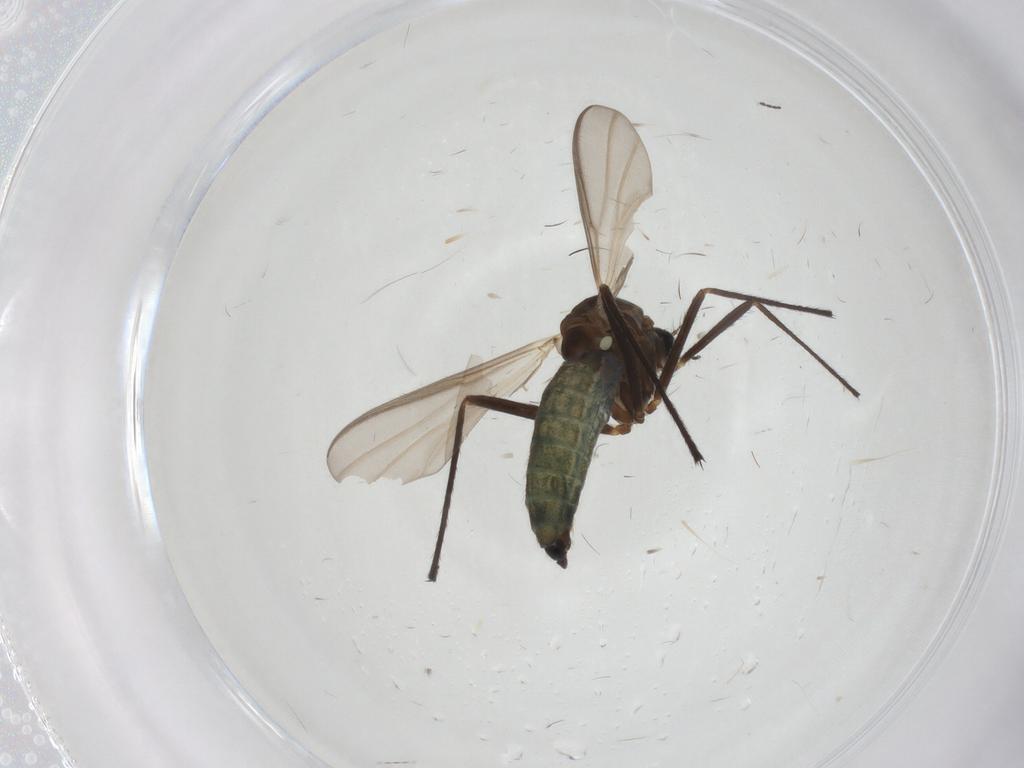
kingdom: Animalia
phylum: Arthropoda
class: Insecta
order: Diptera
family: Chironomidae
